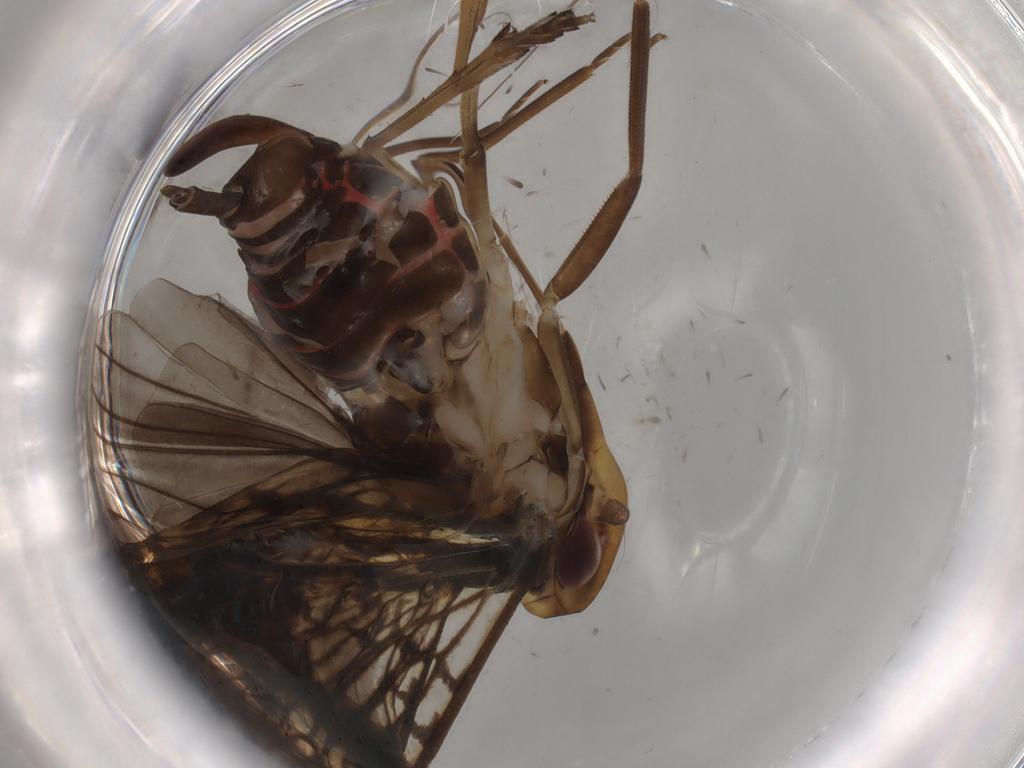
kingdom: Animalia
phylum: Arthropoda
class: Insecta
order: Hemiptera
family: Cixiidae
